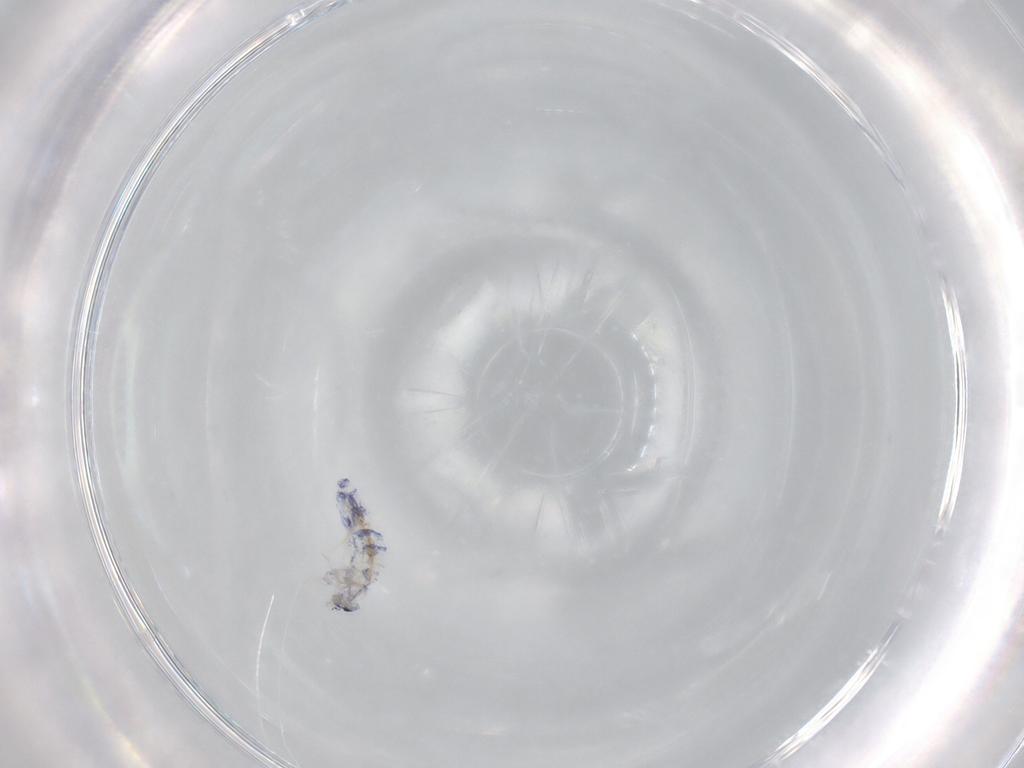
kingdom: Animalia
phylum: Arthropoda
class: Collembola
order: Entomobryomorpha
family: Entomobryidae
